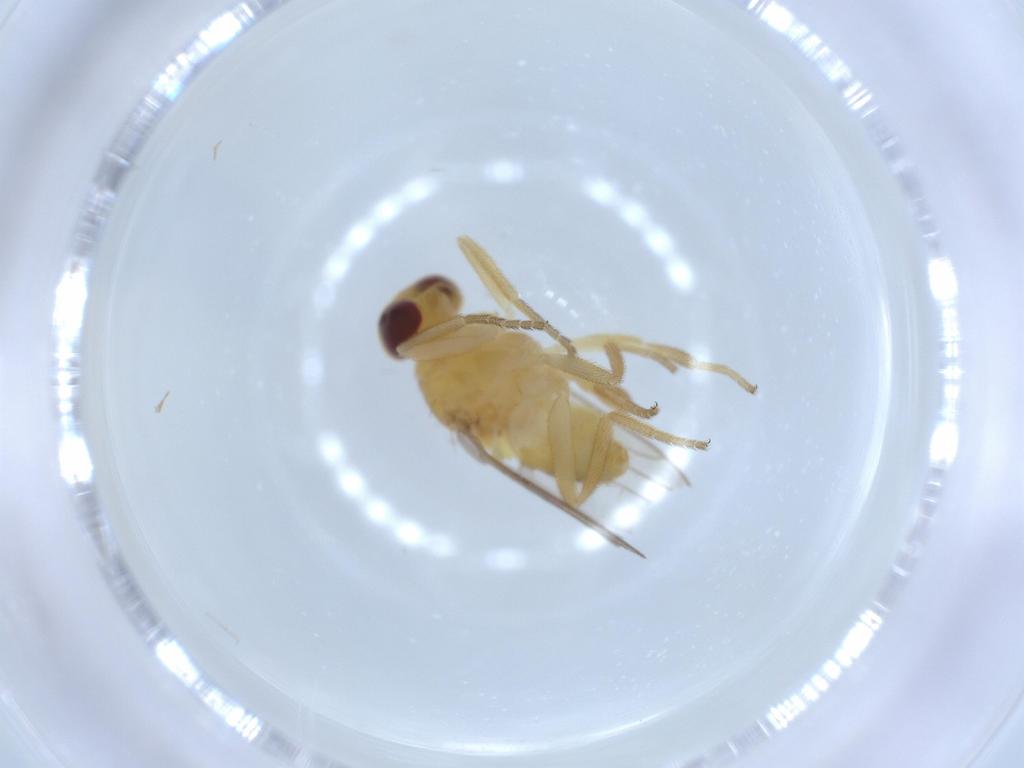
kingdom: Animalia
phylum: Arthropoda
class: Insecta
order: Diptera
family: Chloropidae
